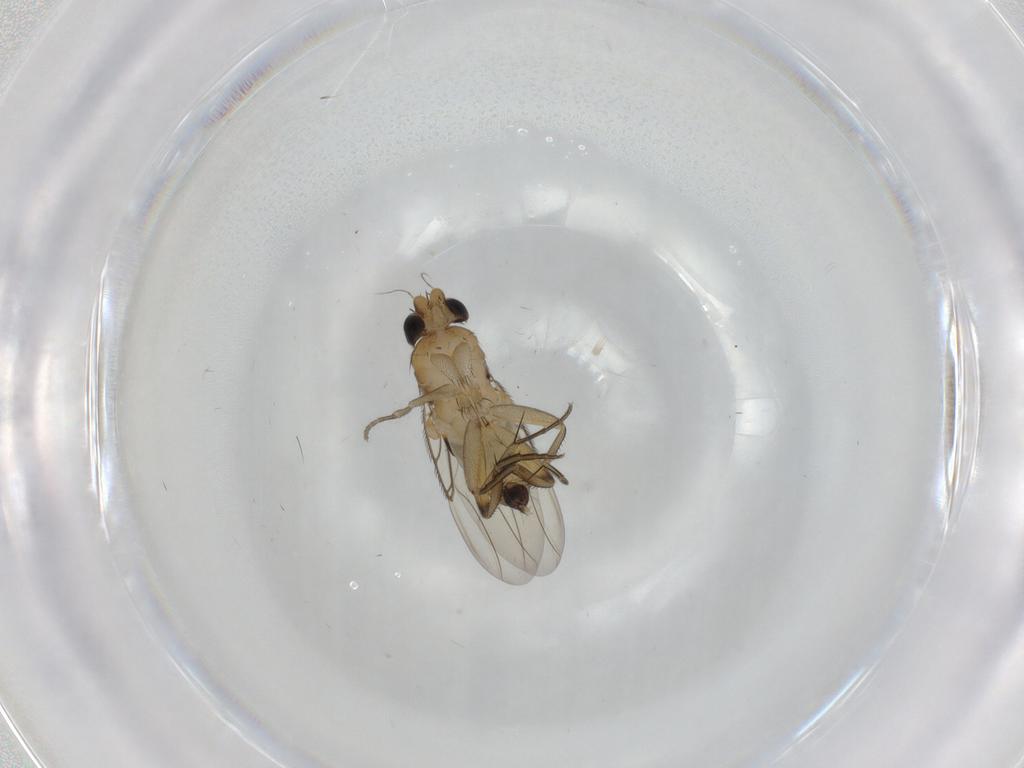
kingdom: Animalia
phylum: Arthropoda
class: Insecta
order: Diptera
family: Phoridae
